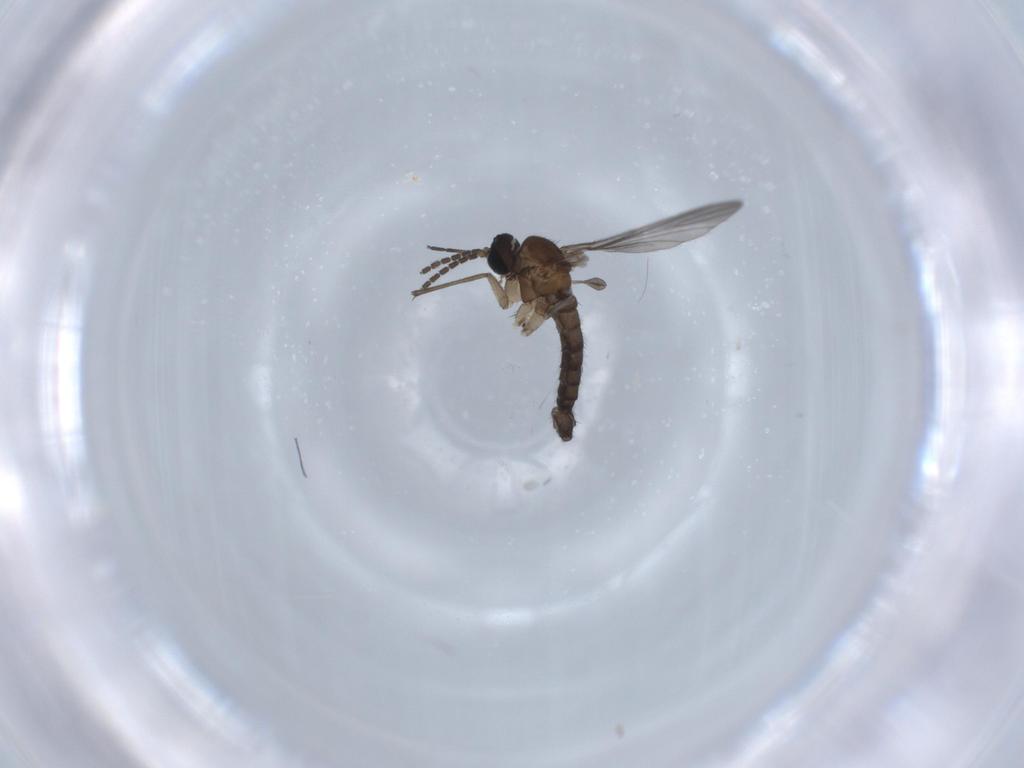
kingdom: Animalia
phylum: Arthropoda
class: Insecta
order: Diptera
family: Sciaridae
